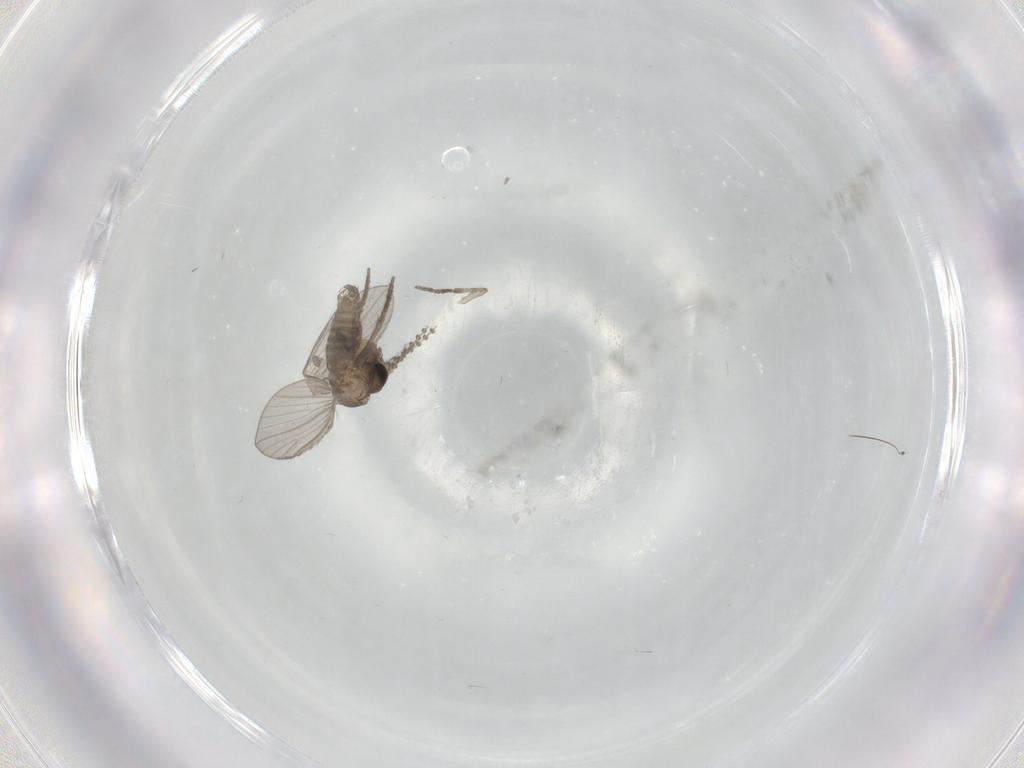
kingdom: Animalia
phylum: Arthropoda
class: Insecta
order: Diptera
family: Psychodidae
